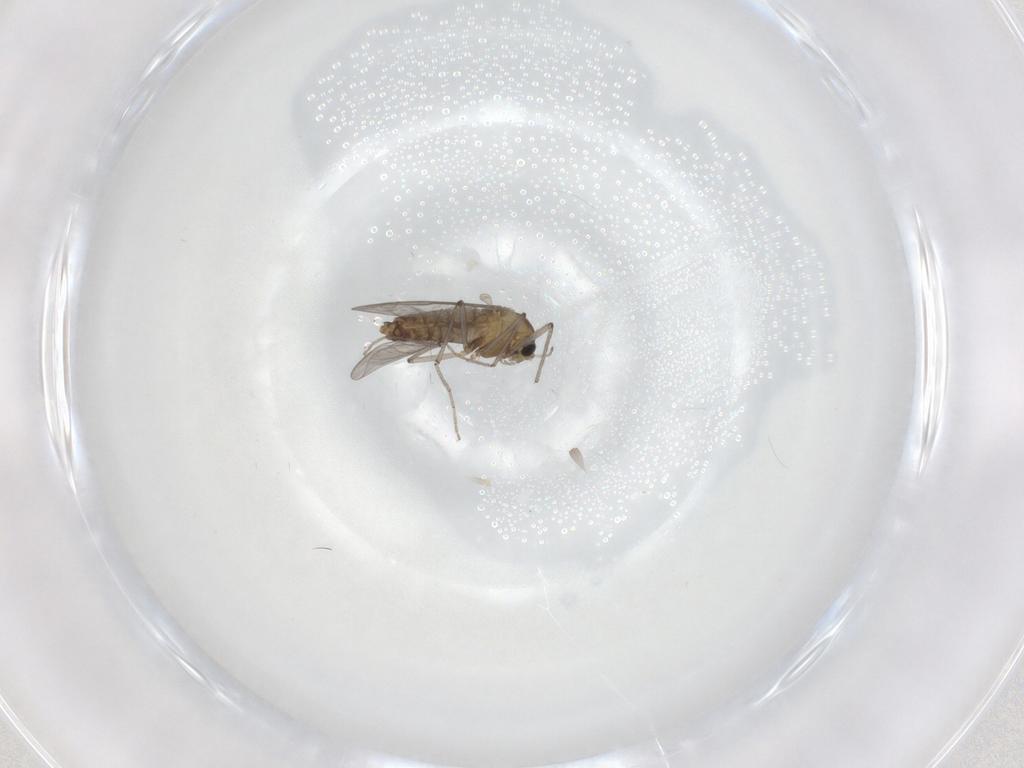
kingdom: Animalia
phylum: Arthropoda
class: Insecta
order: Diptera
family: Chironomidae
